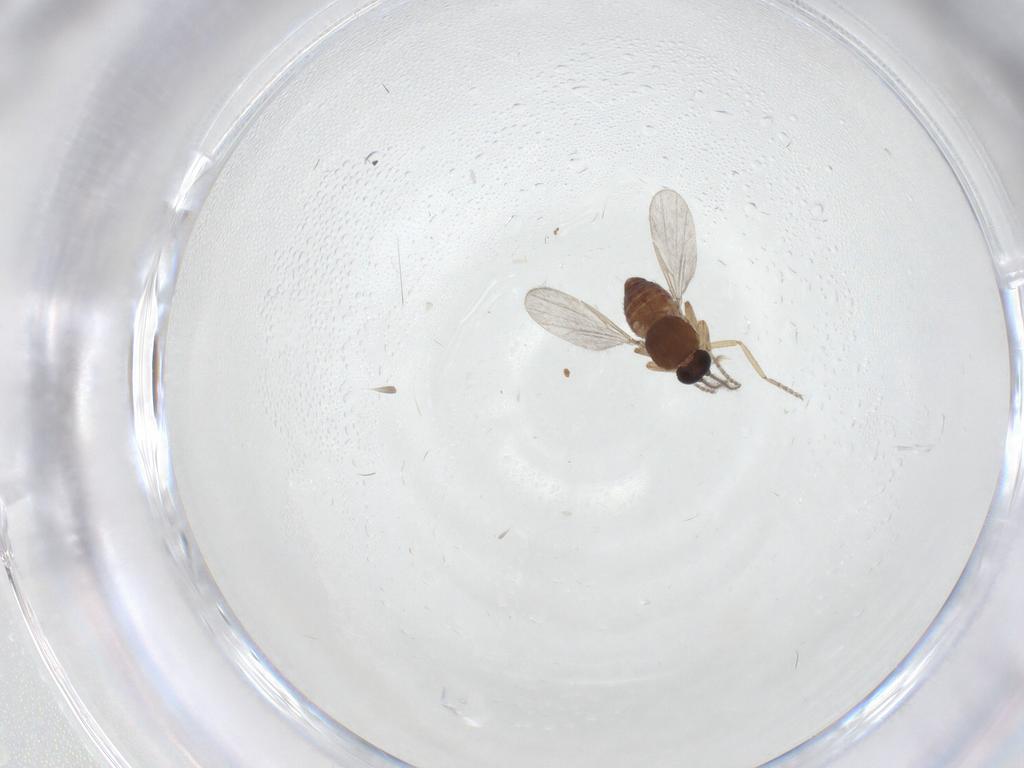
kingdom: Animalia
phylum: Arthropoda
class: Insecta
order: Diptera
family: Ceratopogonidae
